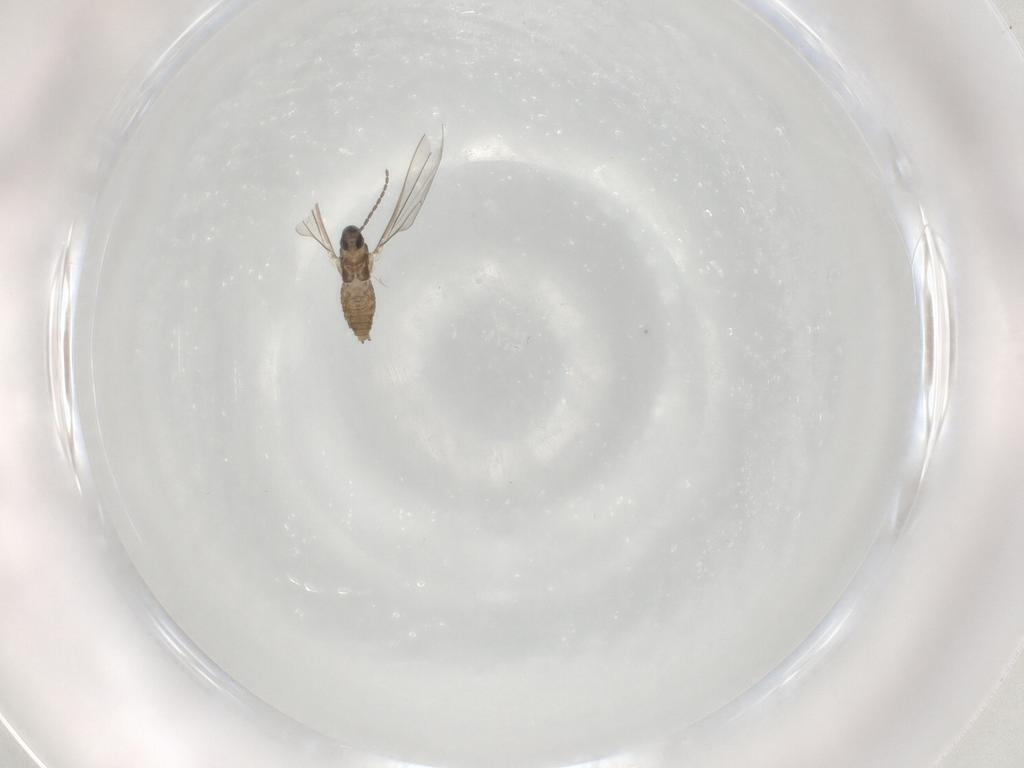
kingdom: Animalia
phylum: Arthropoda
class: Insecta
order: Diptera
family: Cecidomyiidae
